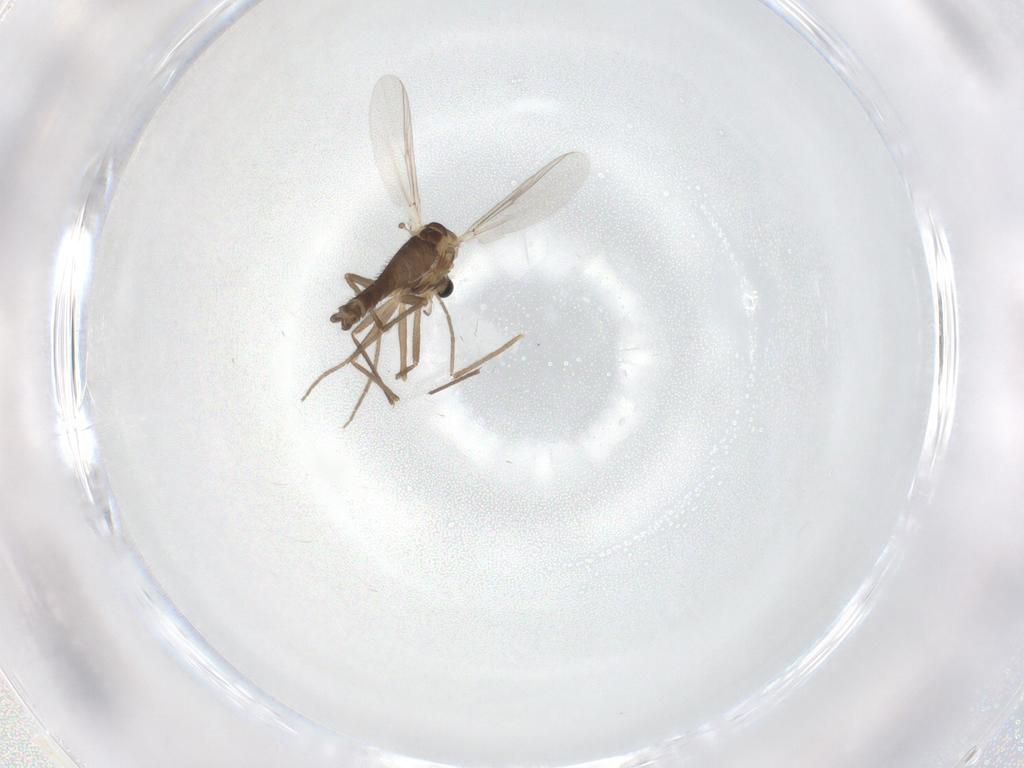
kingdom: Animalia
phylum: Arthropoda
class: Insecta
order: Diptera
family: Chironomidae
